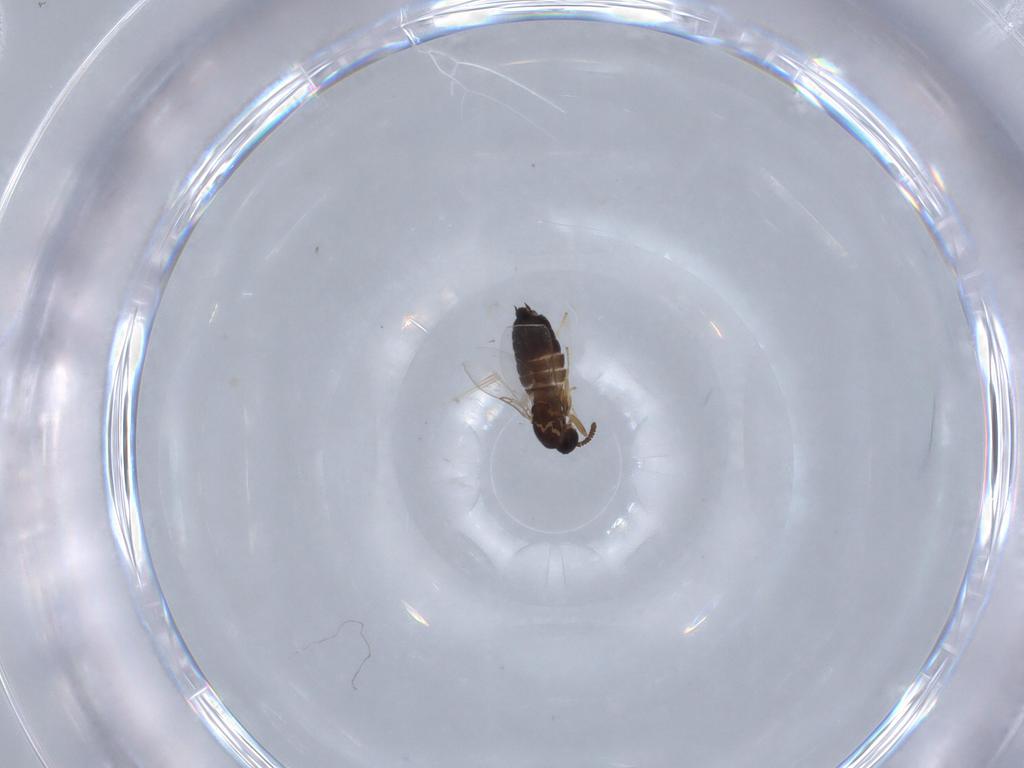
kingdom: Animalia
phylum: Arthropoda
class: Insecta
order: Diptera
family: Scatopsidae
